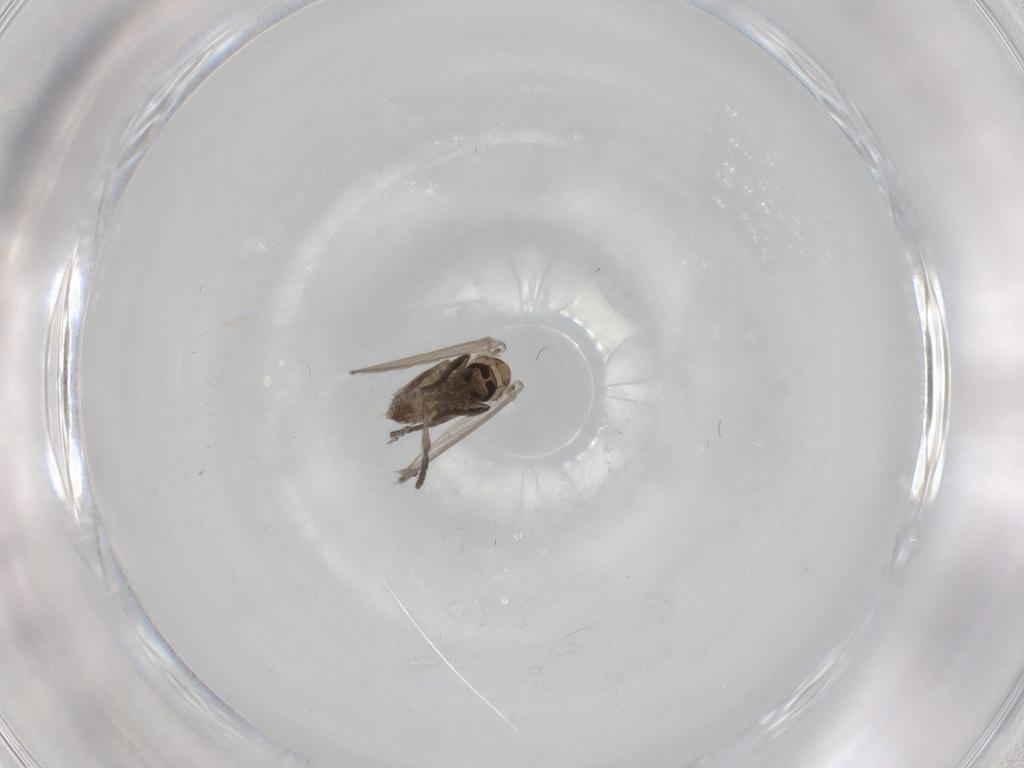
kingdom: Animalia
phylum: Arthropoda
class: Insecta
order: Diptera
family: Psychodidae
